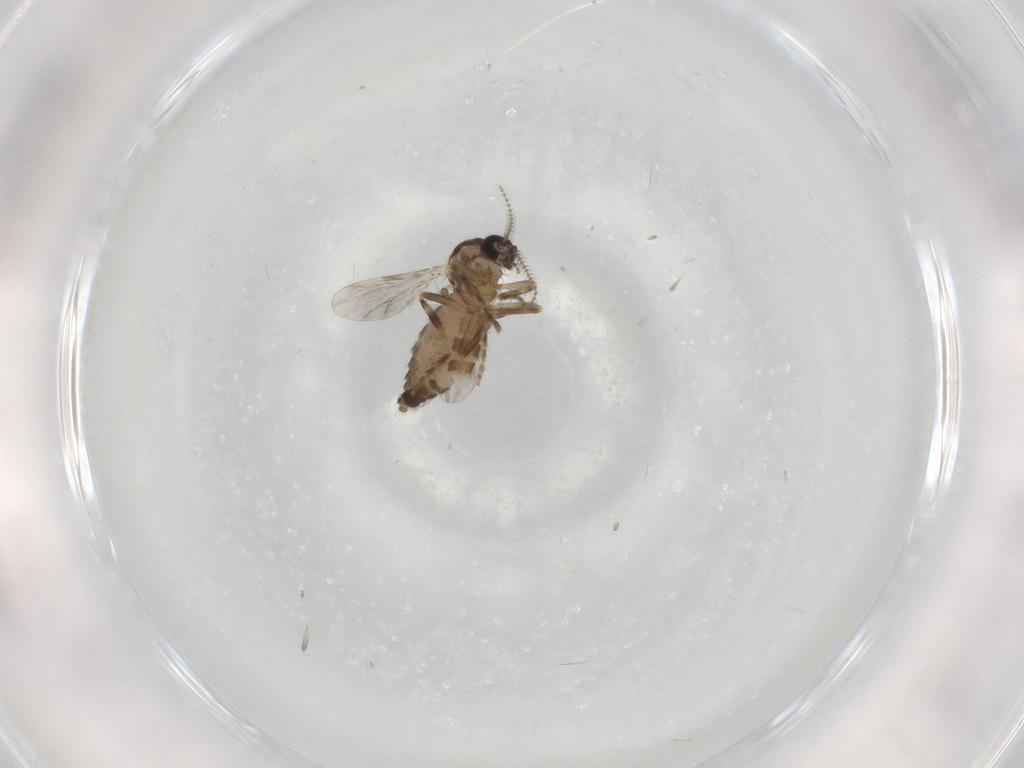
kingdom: Animalia
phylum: Arthropoda
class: Insecta
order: Diptera
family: Ceratopogonidae
